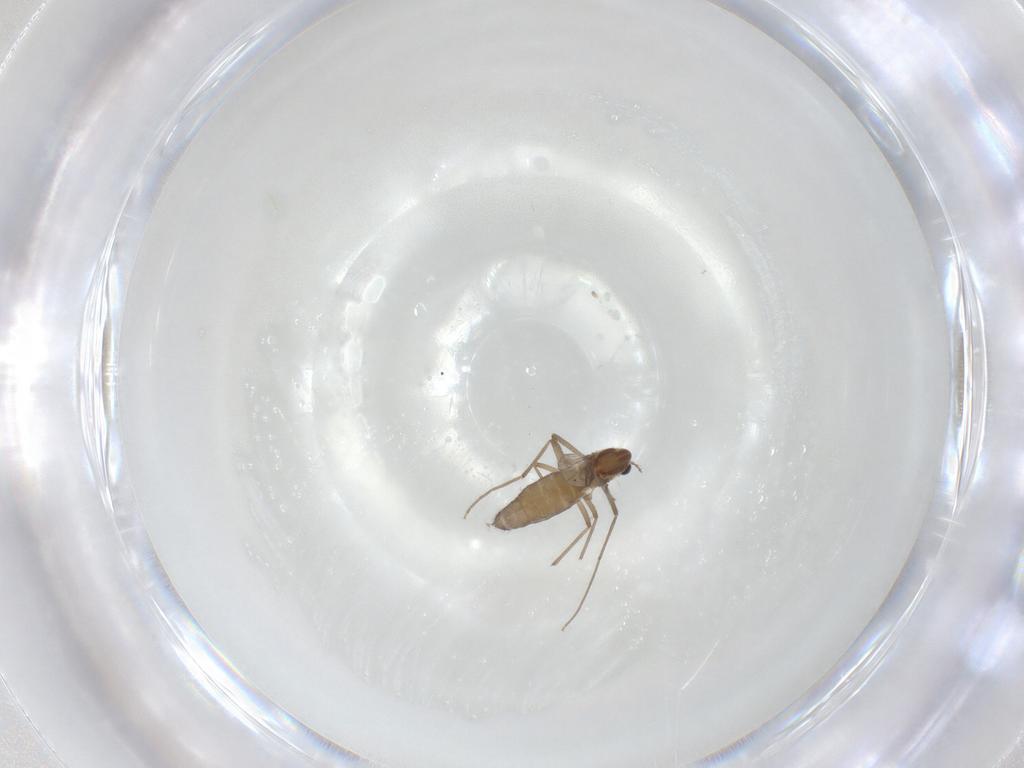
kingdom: Animalia
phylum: Arthropoda
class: Insecta
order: Diptera
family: Chironomidae
